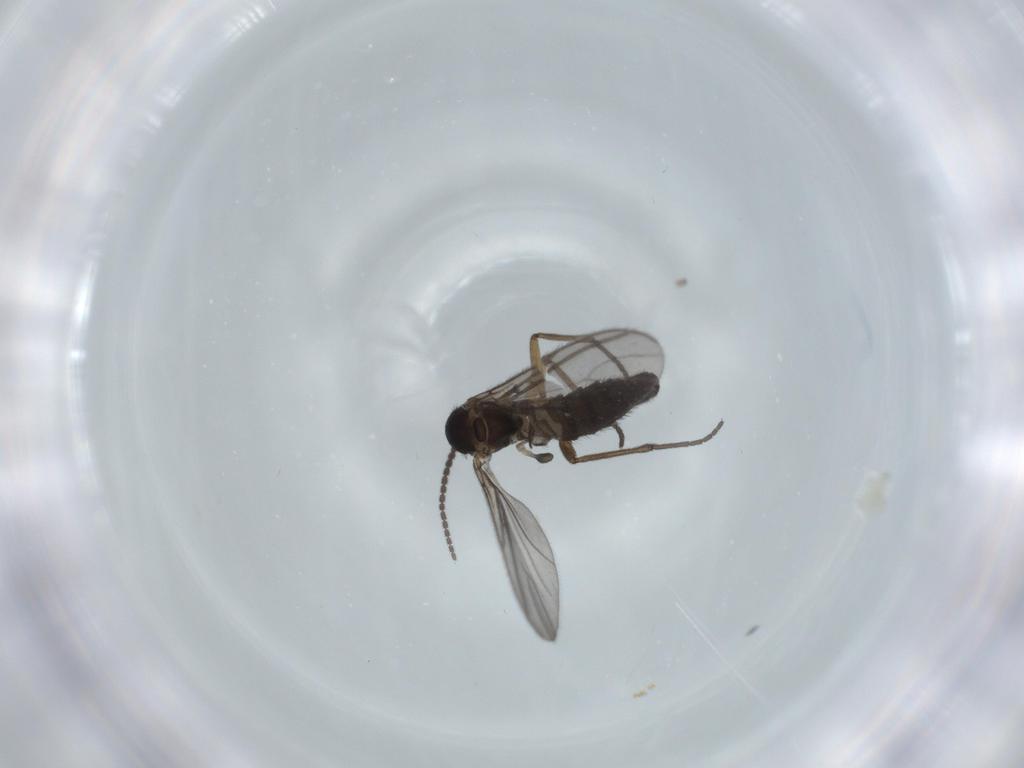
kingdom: Animalia
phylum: Arthropoda
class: Insecta
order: Diptera
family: Sciaridae
